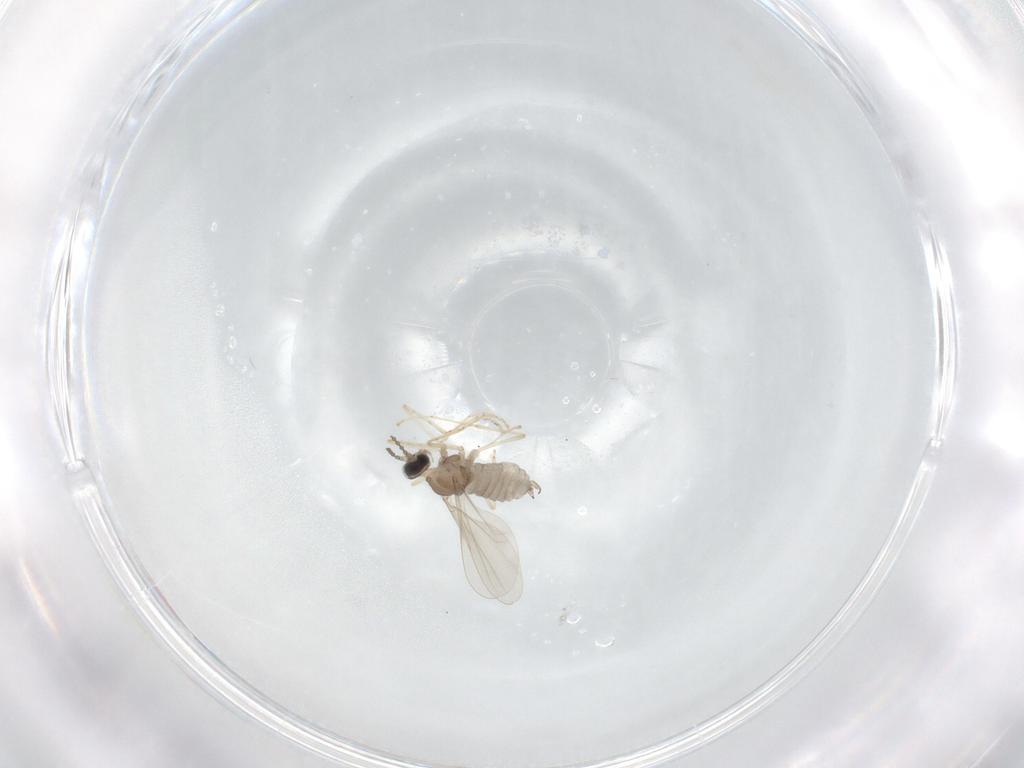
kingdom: Animalia
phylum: Arthropoda
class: Insecta
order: Diptera
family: Cecidomyiidae
